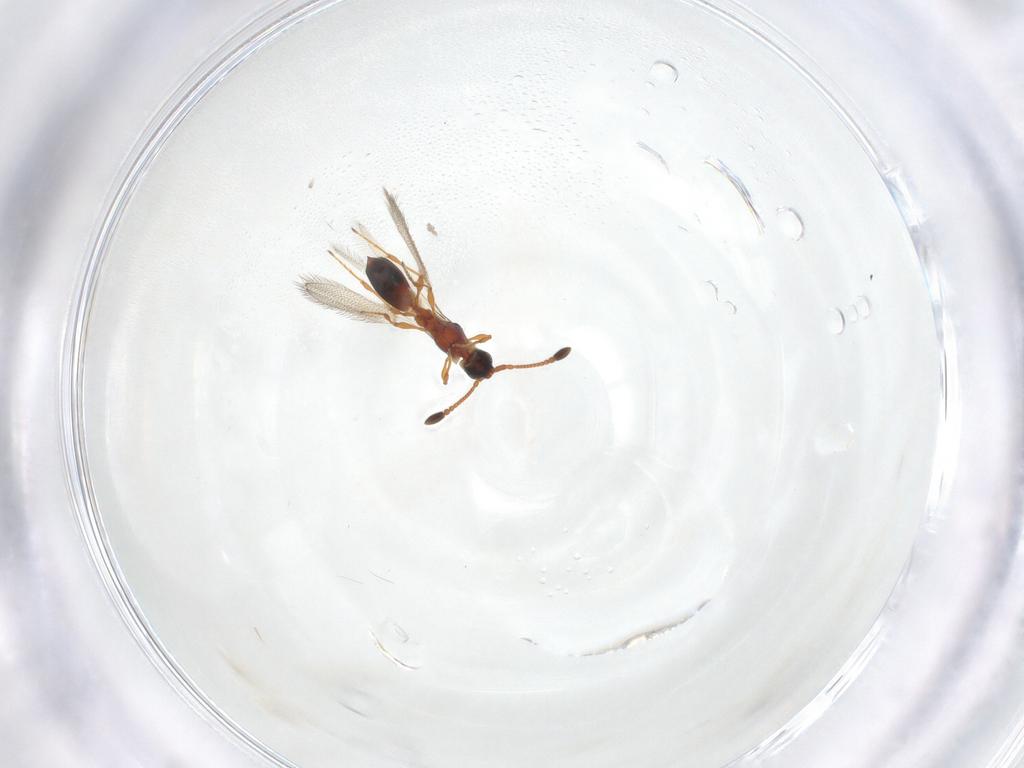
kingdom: Animalia
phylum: Arthropoda
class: Insecta
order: Hymenoptera
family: Diapriidae
